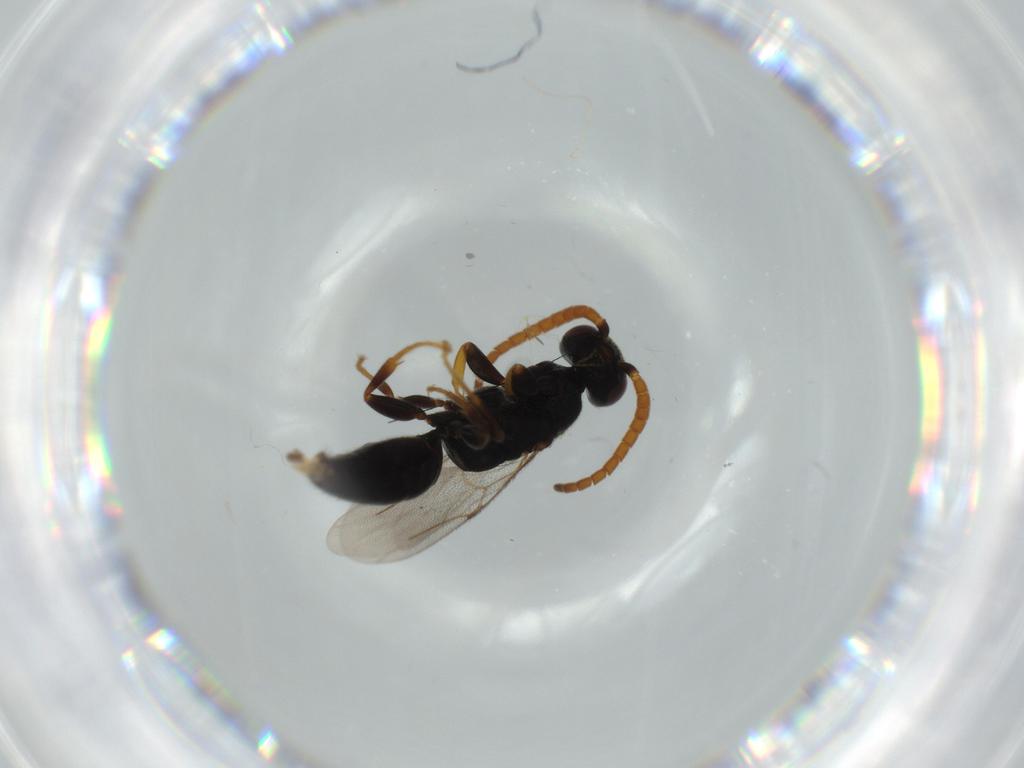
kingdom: Animalia
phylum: Arthropoda
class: Insecta
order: Hymenoptera
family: Bethylidae
